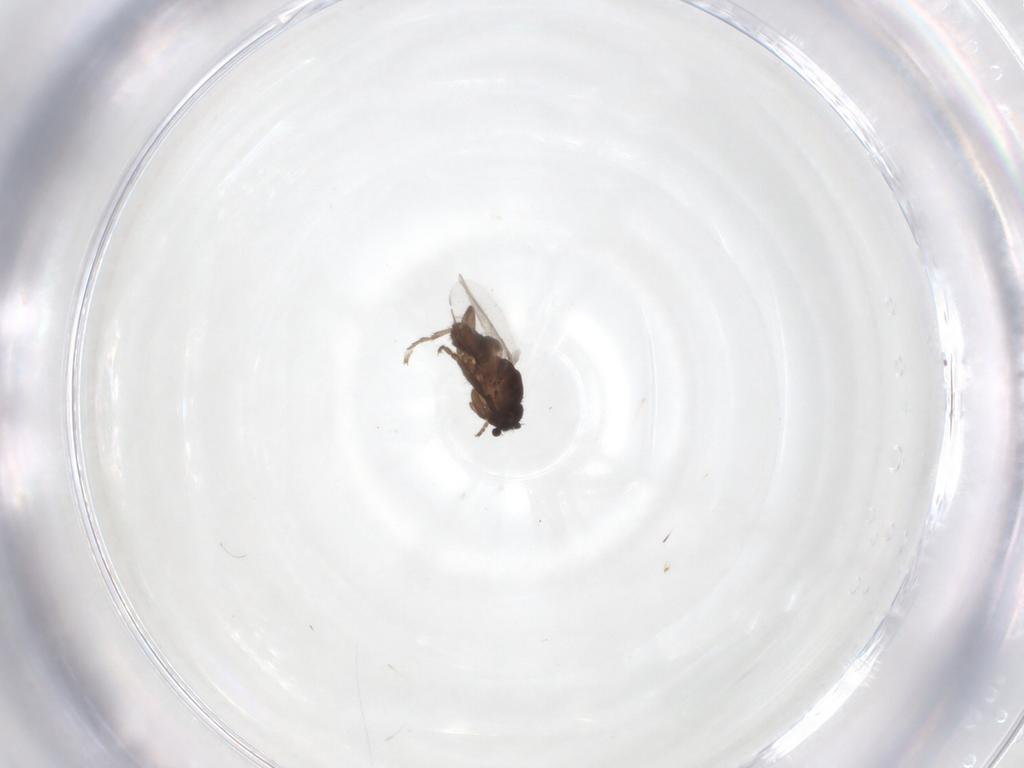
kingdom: Animalia
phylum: Arthropoda
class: Insecta
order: Diptera
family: Sphaeroceridae
